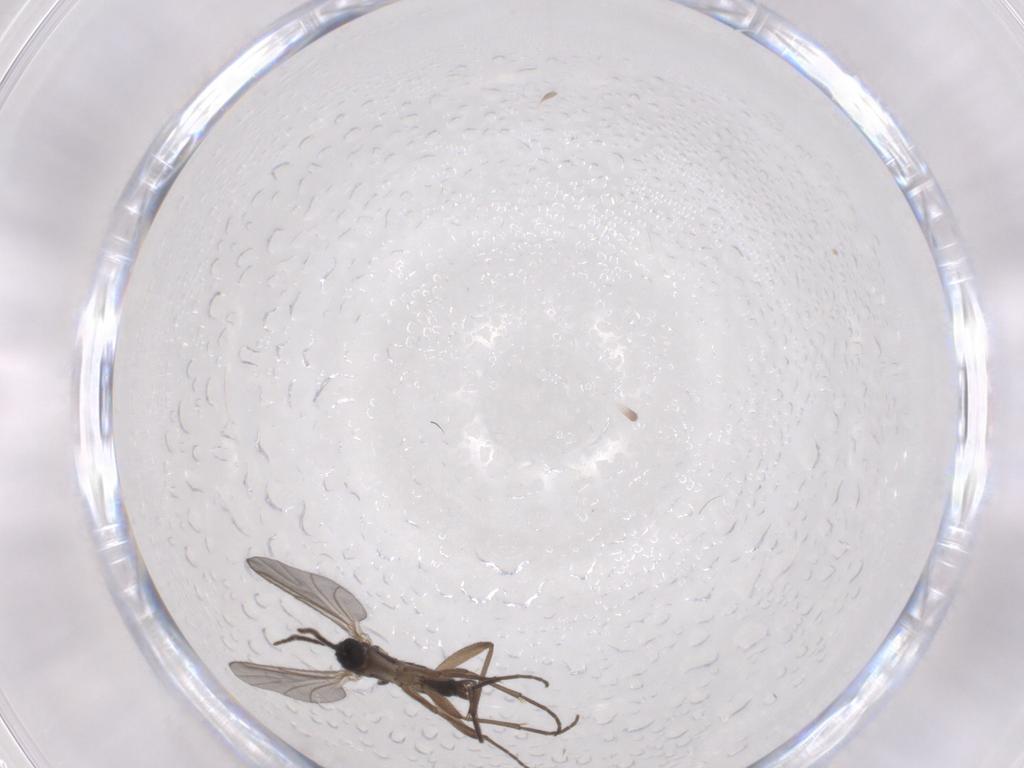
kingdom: Animalia
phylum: Arthropoda
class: Insecta
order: Diptera
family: Ceratopogonidae
